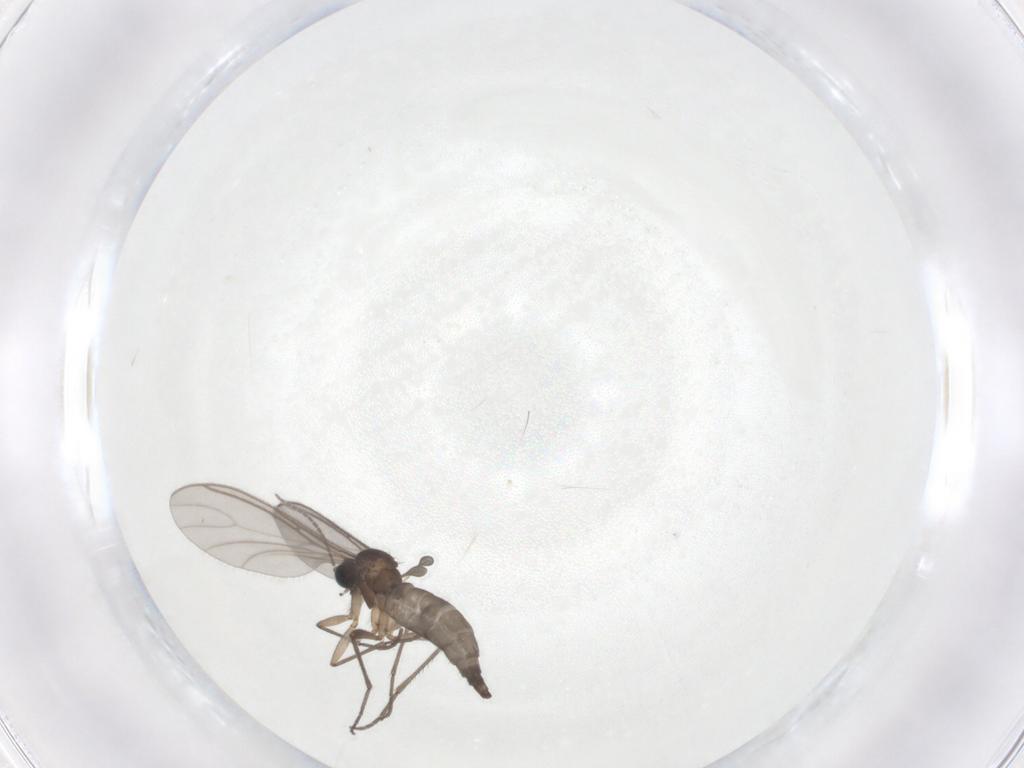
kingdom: Animalia
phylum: Arthropoda
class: Insecta
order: Diptera
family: Sciaridae
